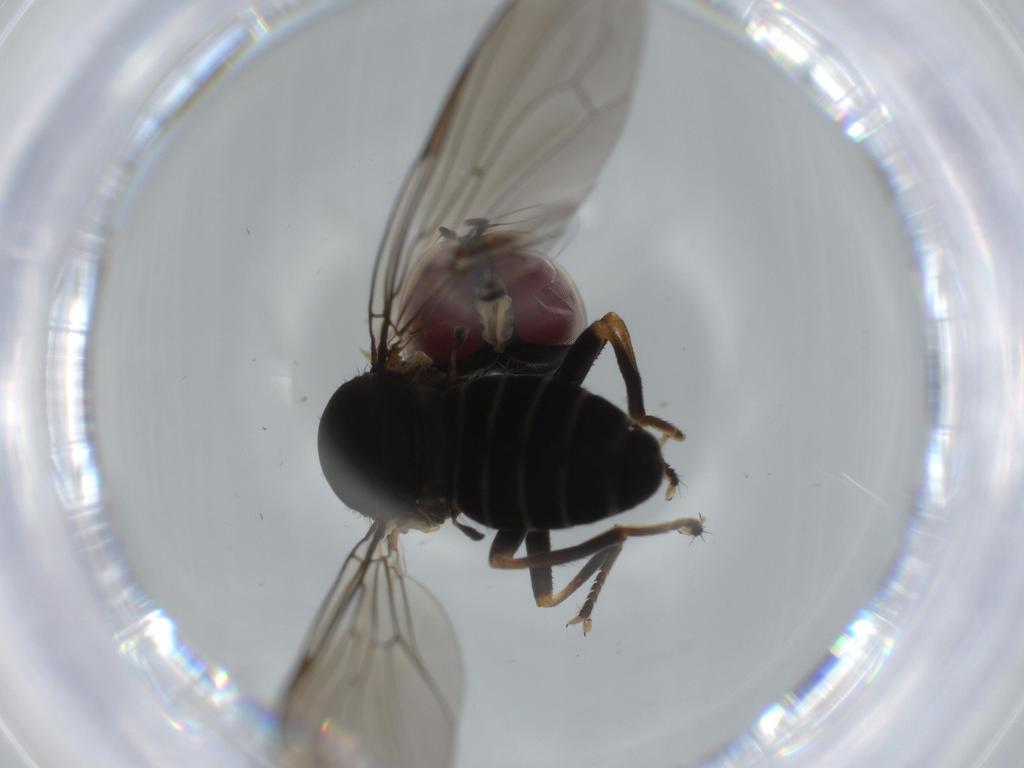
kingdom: Animalia
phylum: Arthropoda
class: Insecta
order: Diptera
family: Cecidomyiidae
